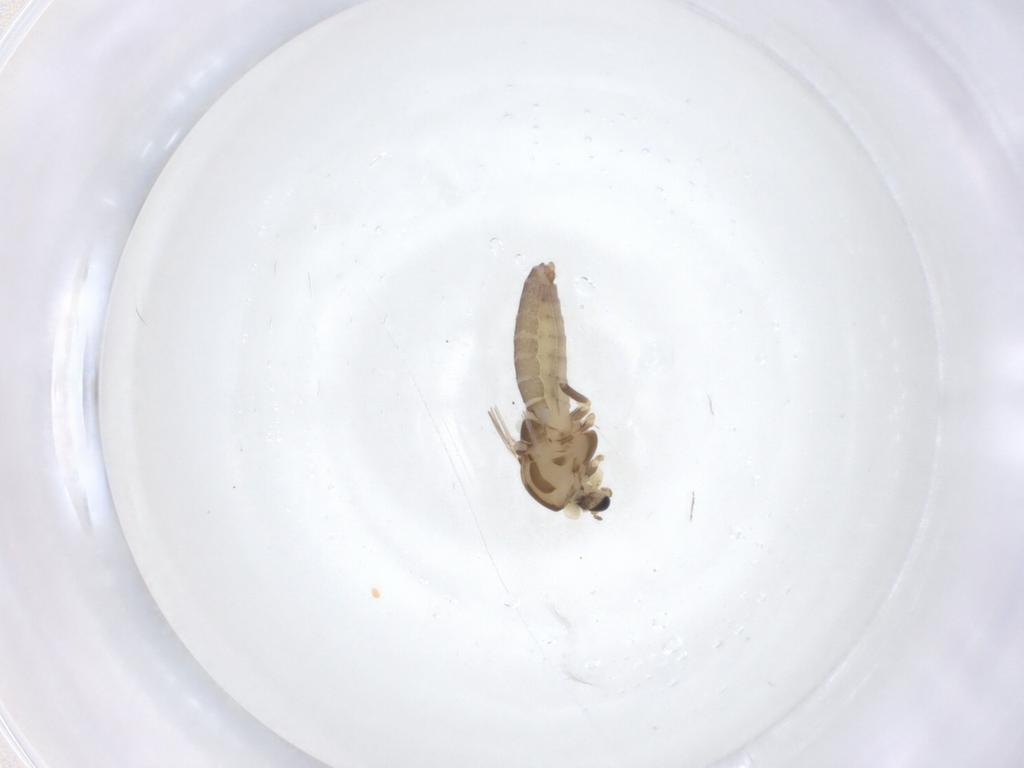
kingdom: Animalia
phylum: Arthropoda
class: Insecta
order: Diptera
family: Chironomidae
